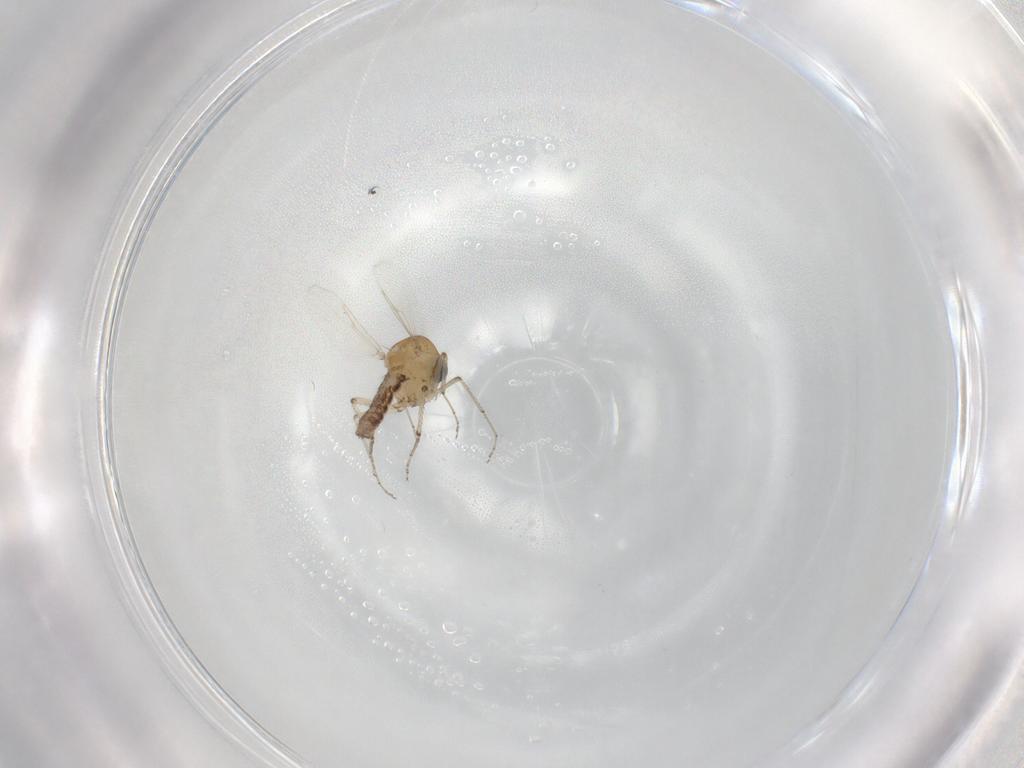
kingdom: Animalia
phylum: Arthropoda
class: Insecta
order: Diptera
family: Ceratopogonidae
